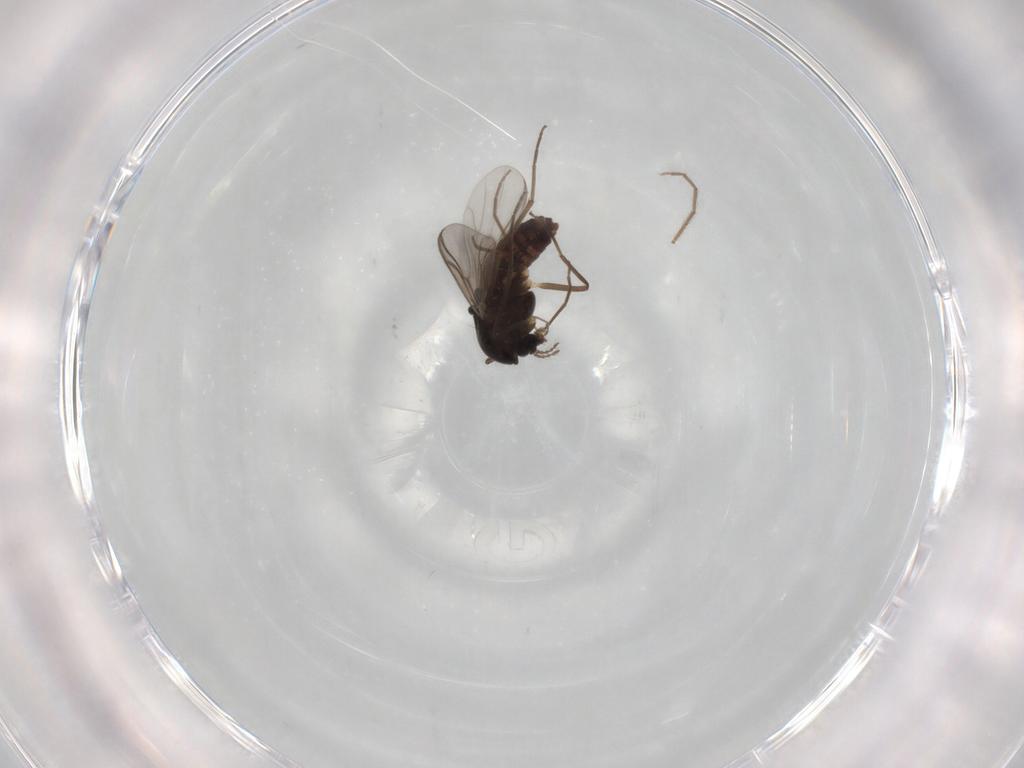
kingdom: Animalia
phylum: Arthropoda
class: Insecta
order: Diptera
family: Chironomidae
